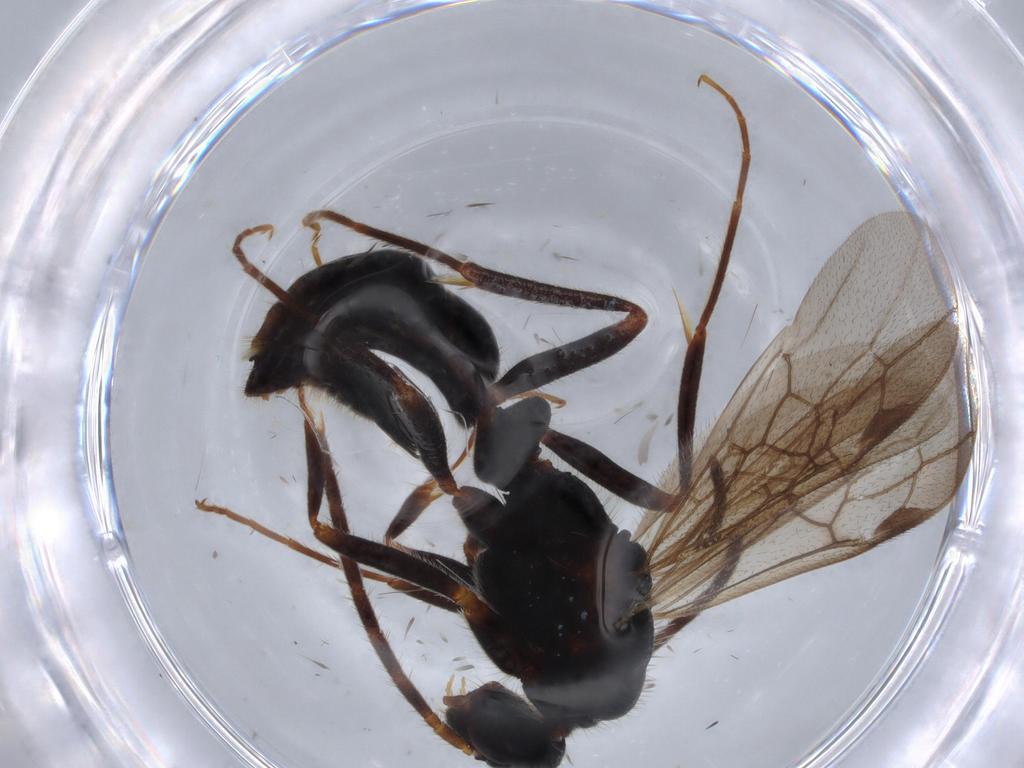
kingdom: Animalia
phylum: Arthropoda
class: Insecta
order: Hymenoptera
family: Formicidae
